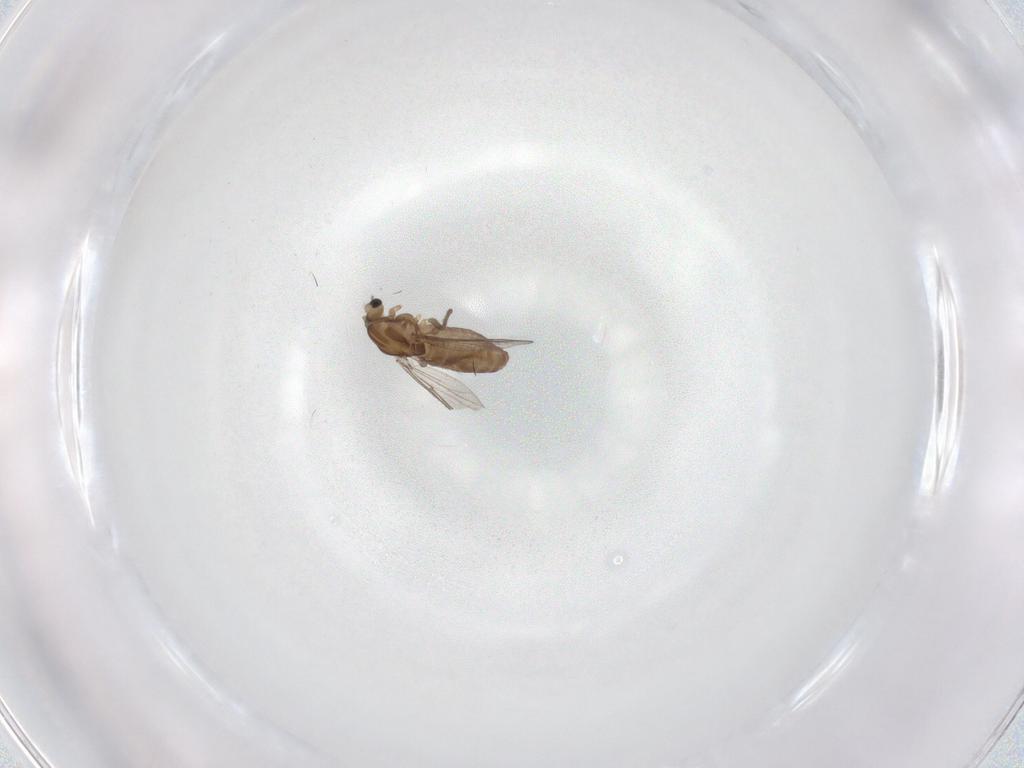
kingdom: Animalia
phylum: Arthropoda
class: Insecta
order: Diptera
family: Chironomidae
